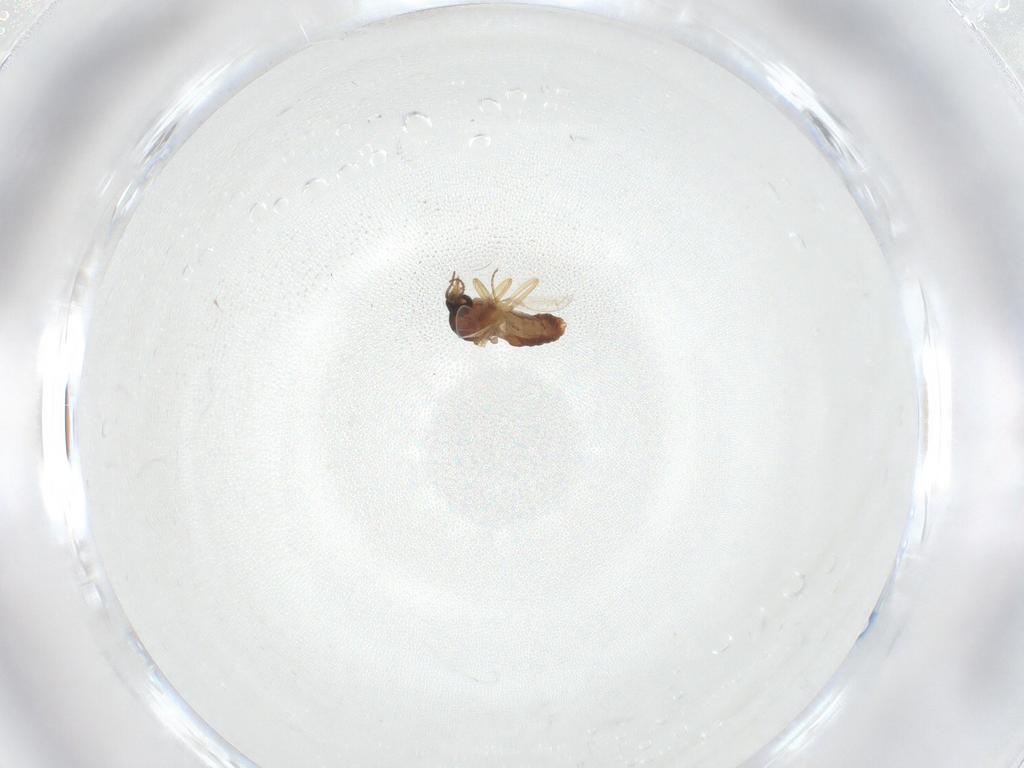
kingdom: Animalia
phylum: Arthropoda
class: Insecta
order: Diptera
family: Ceratopogonidae
